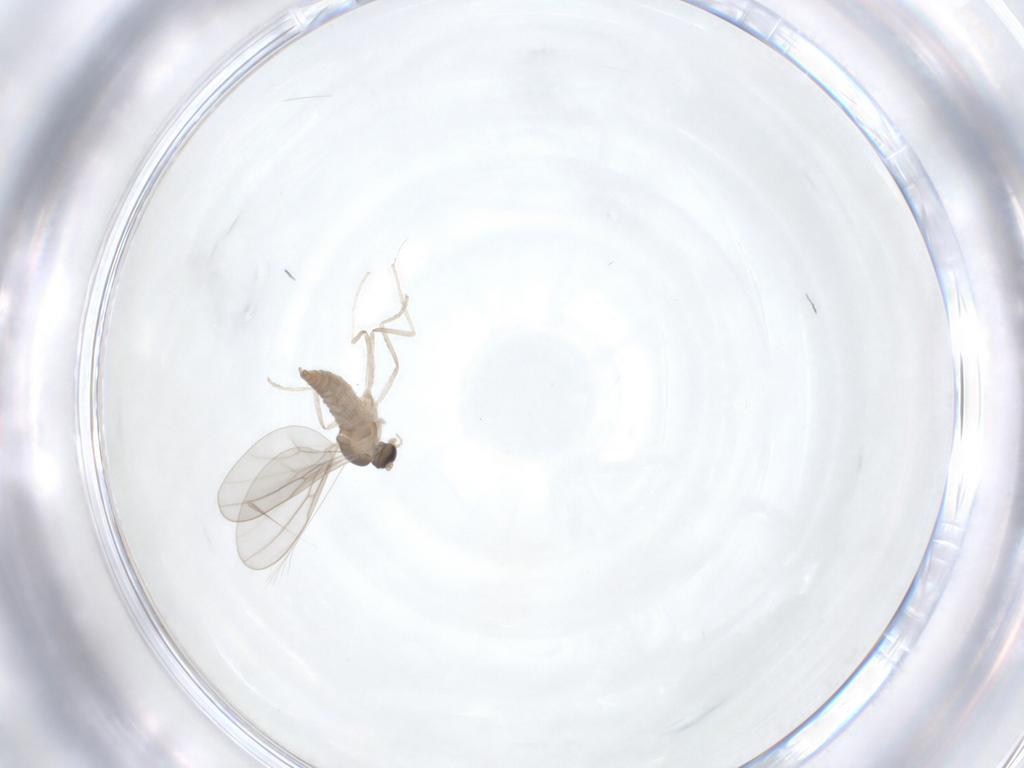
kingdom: Animalia
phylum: Arthropoda
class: Insecta
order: Diptera
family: Cecidomyiidae
